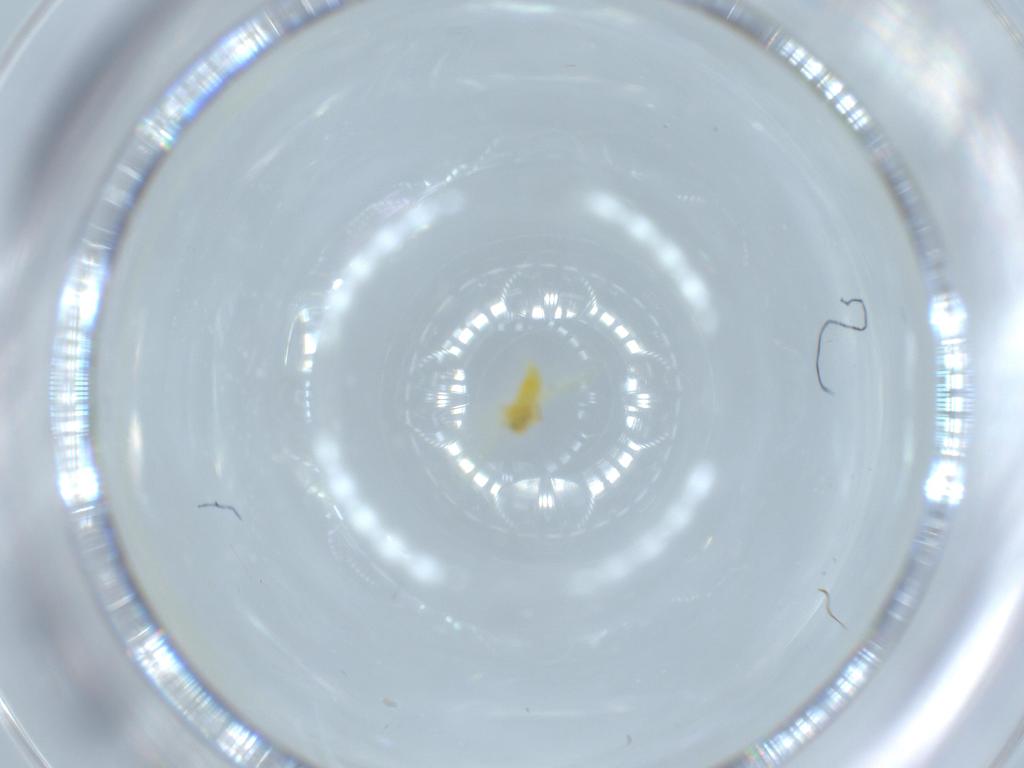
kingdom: Animalia
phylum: Arthropoda
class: Insecta
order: Hemiptera
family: Aleyrodidae
